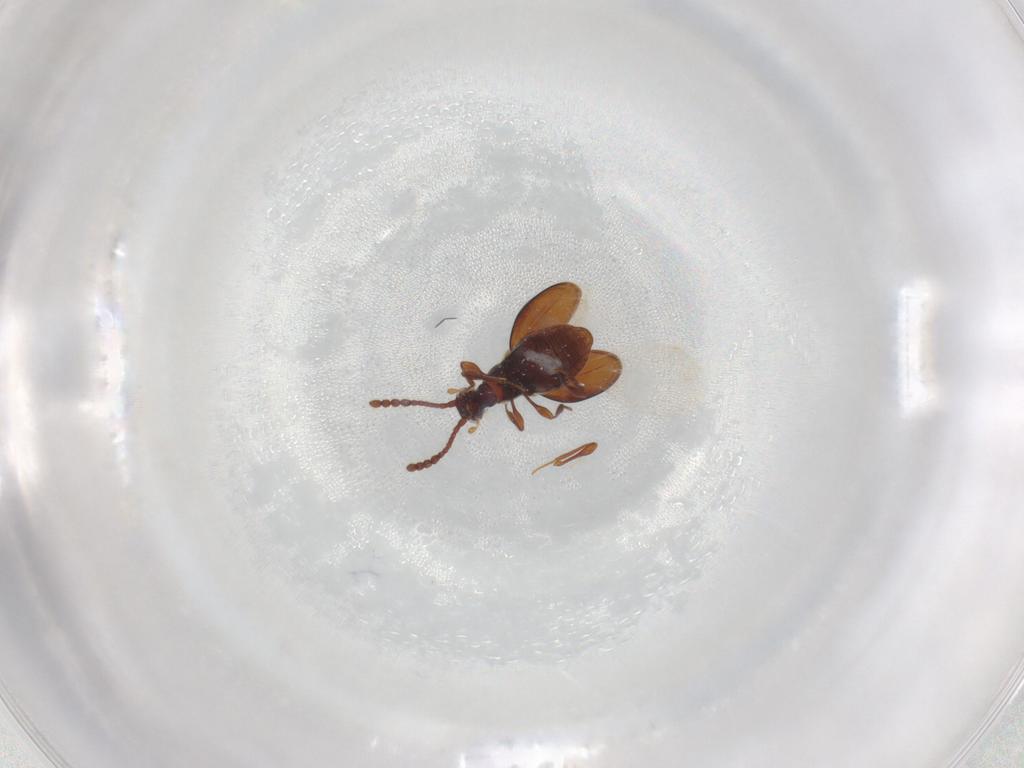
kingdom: Animalia
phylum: Arthropoda
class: Insecta
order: Coleoptera
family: Staphylinidae
